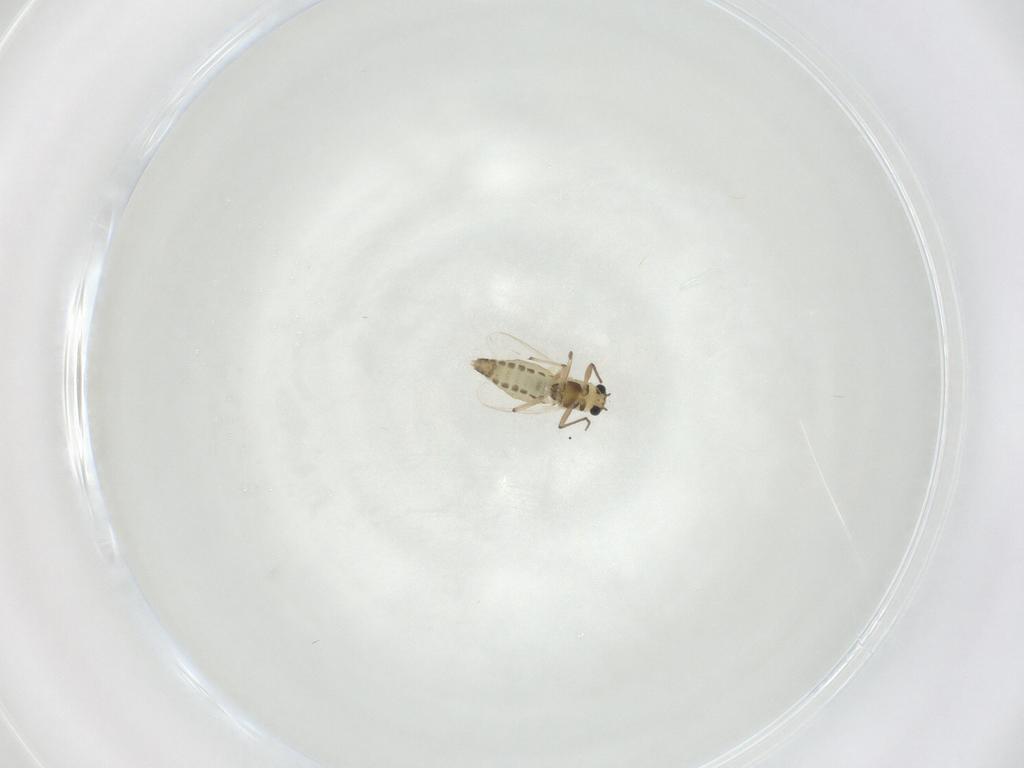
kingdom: Animalia
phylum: Arthropoda
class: Insecta
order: Diptera
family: Chironomidae
